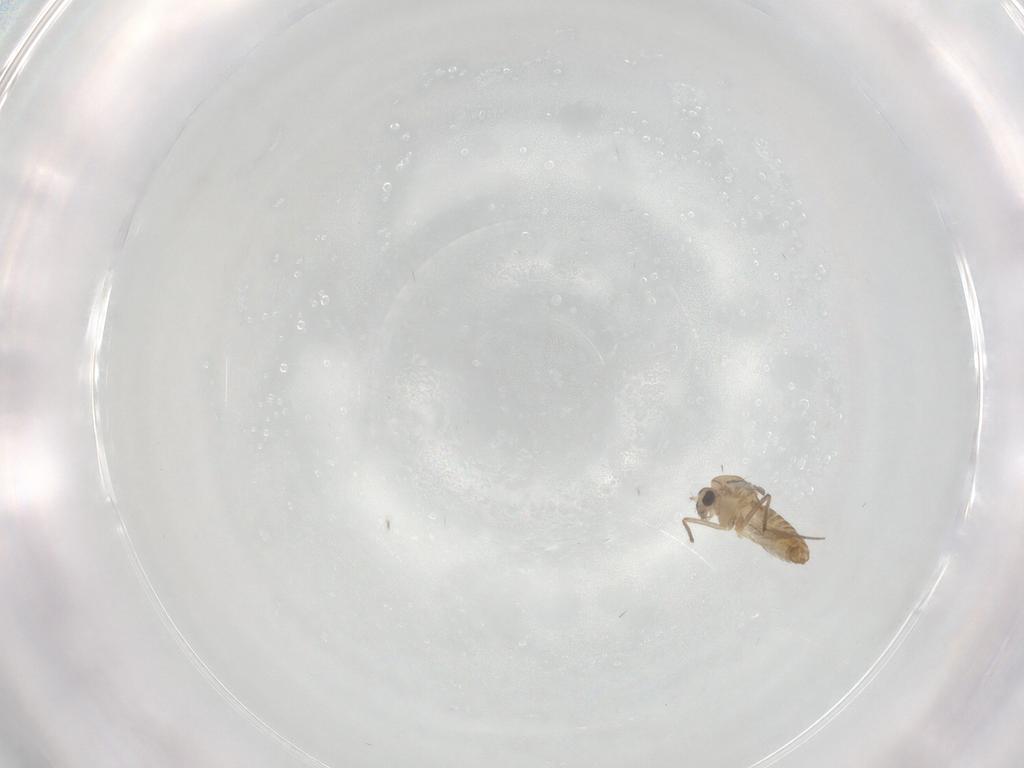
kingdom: Animalia
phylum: Arthropoda
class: Insecta
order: Diptera
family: Chironomidae
